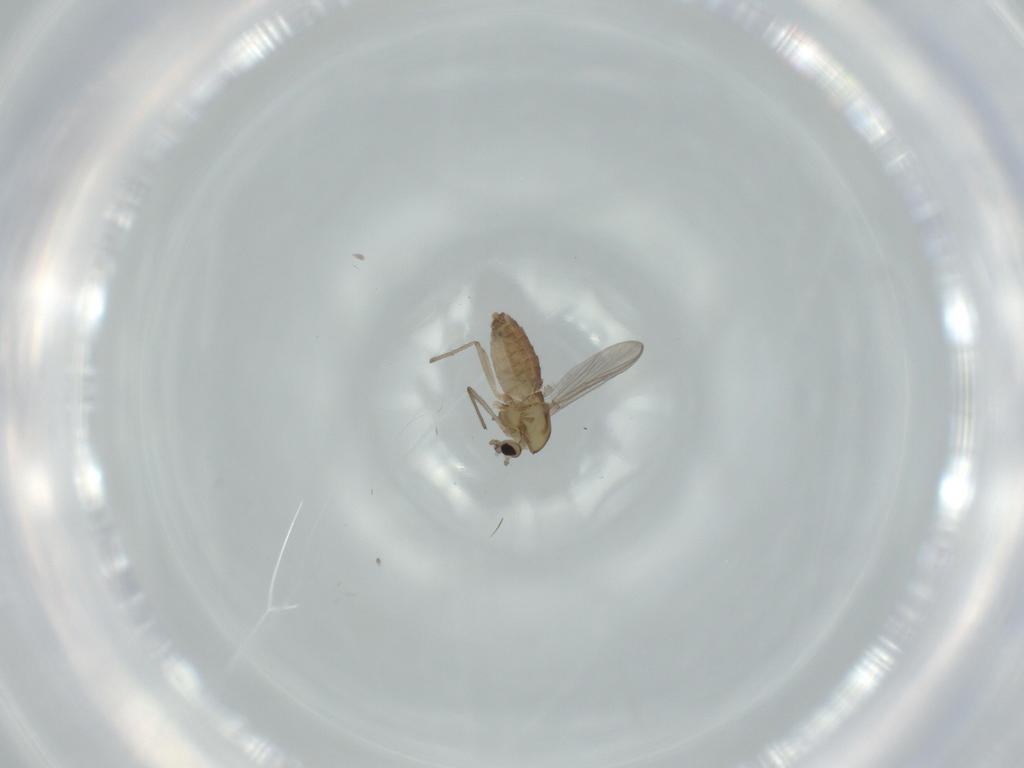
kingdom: Animalia
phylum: Arthropoda
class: Insecta
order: Diptera
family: Chironomidae
